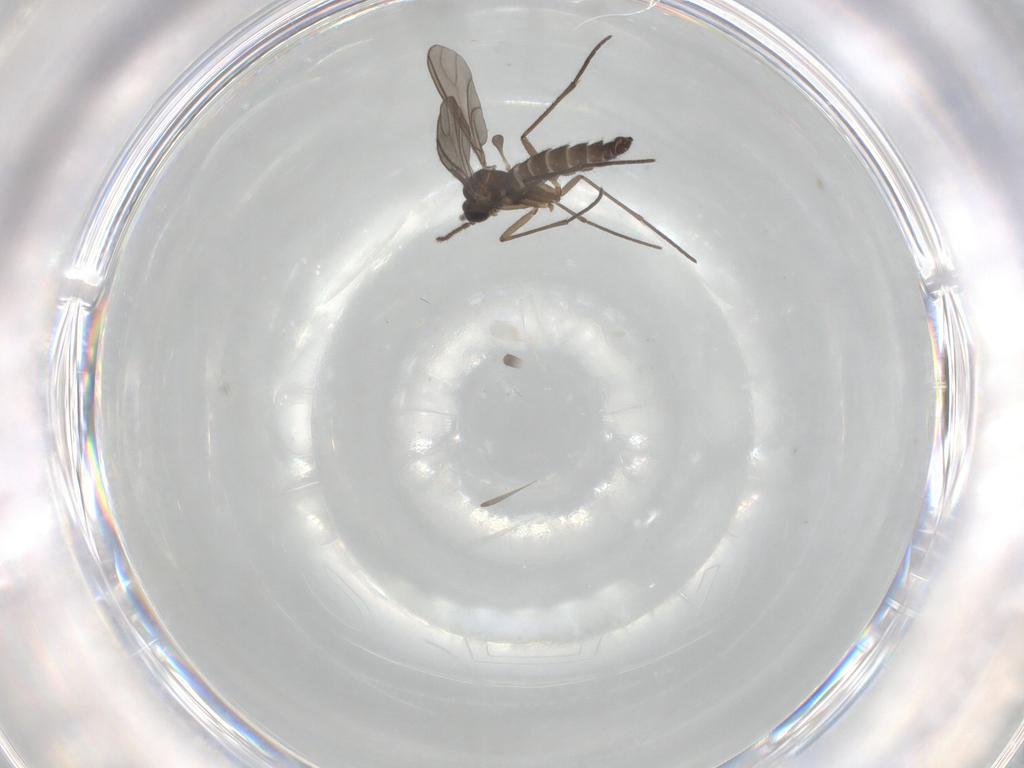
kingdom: Animalia
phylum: Arthropoda
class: Insecta
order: Diptera
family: Sciaridae
